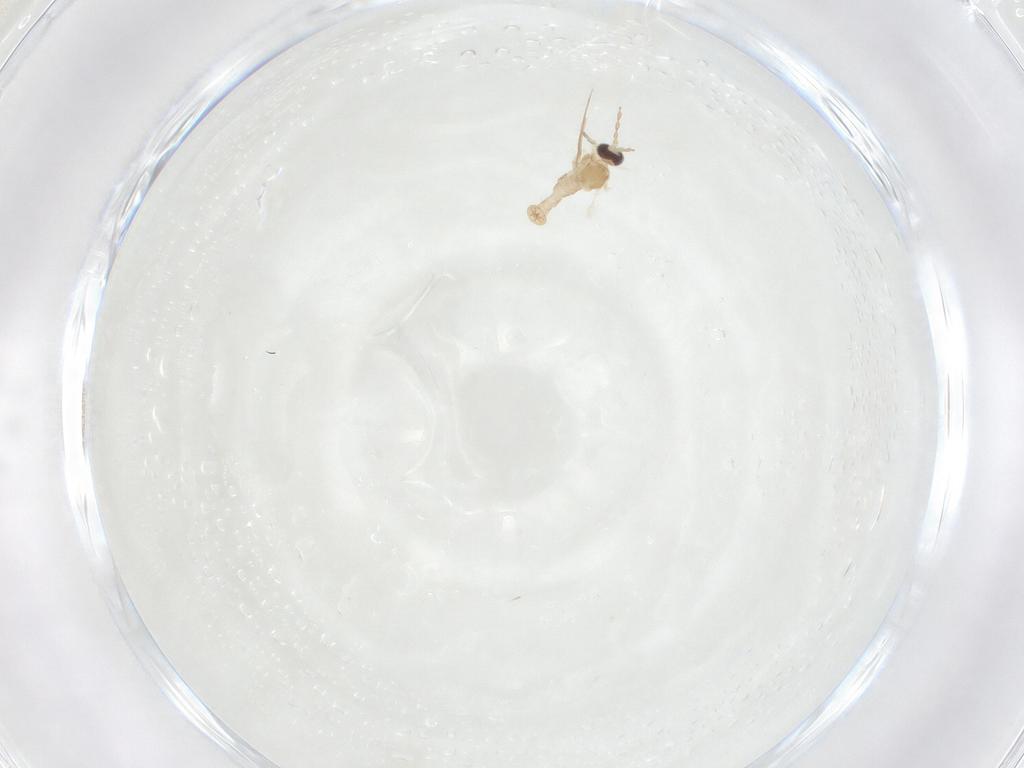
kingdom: Animalia
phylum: Arthropoda
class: Insecta
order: Diptera
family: Cecidomyiidae
